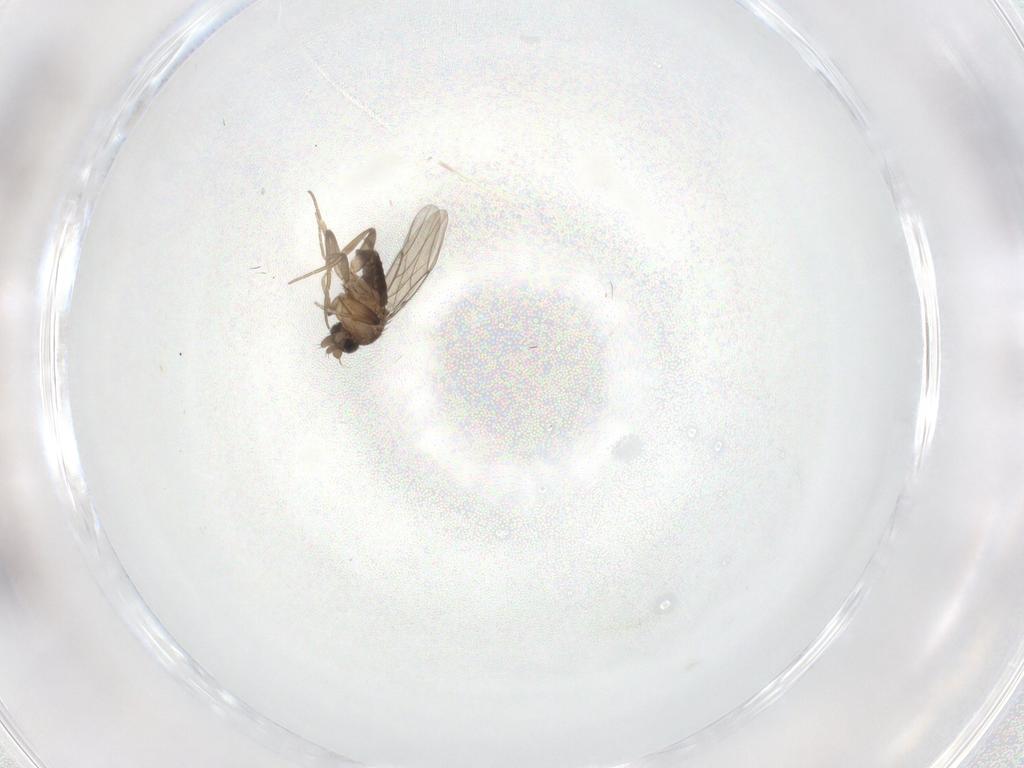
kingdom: Animalia
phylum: Arthropoda
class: Insecta
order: Diptera
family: Phoridae
